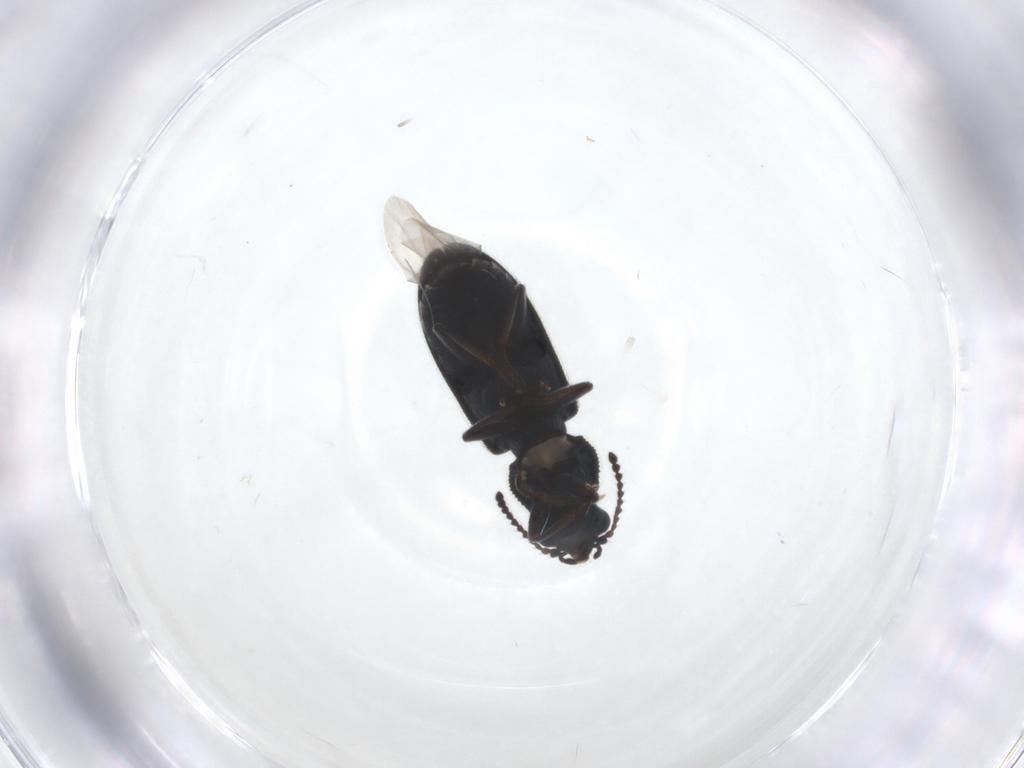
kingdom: Animalia
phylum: Arthropoda
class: Insecta
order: Coleoptera
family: Melyridae
